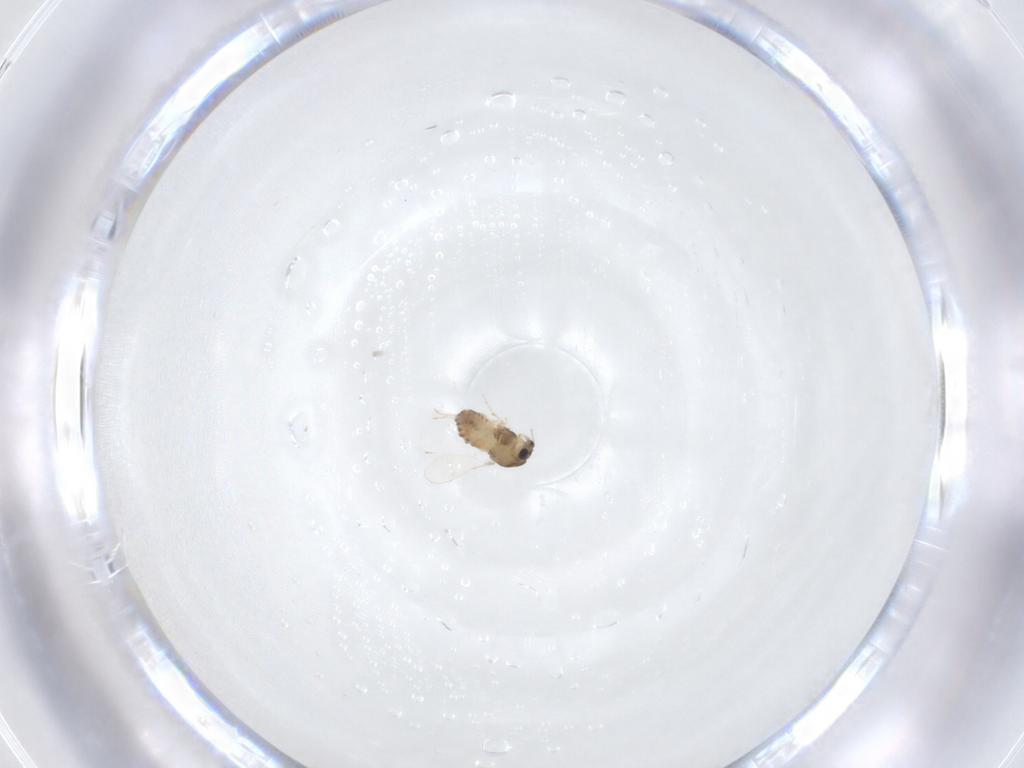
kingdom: Animalia
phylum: Arthropoda
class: Insecta
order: Diptera
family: Chironomidae
